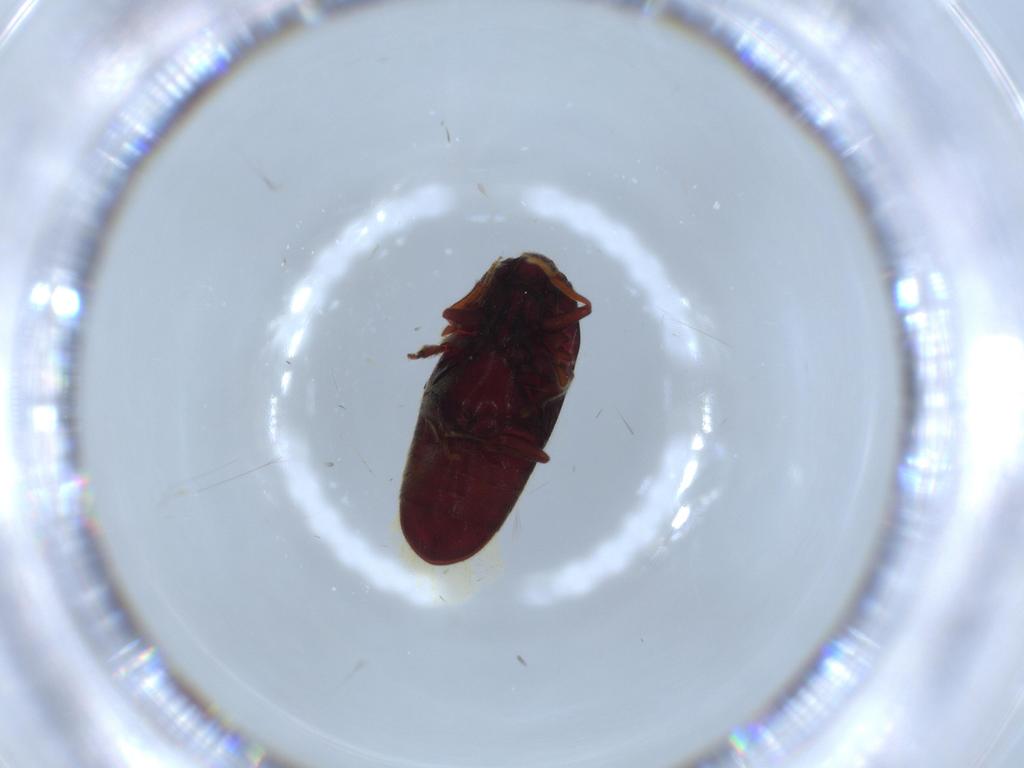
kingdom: Animalia
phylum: Arthropoda
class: Insecta
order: Coleoptera
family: Throscidae
